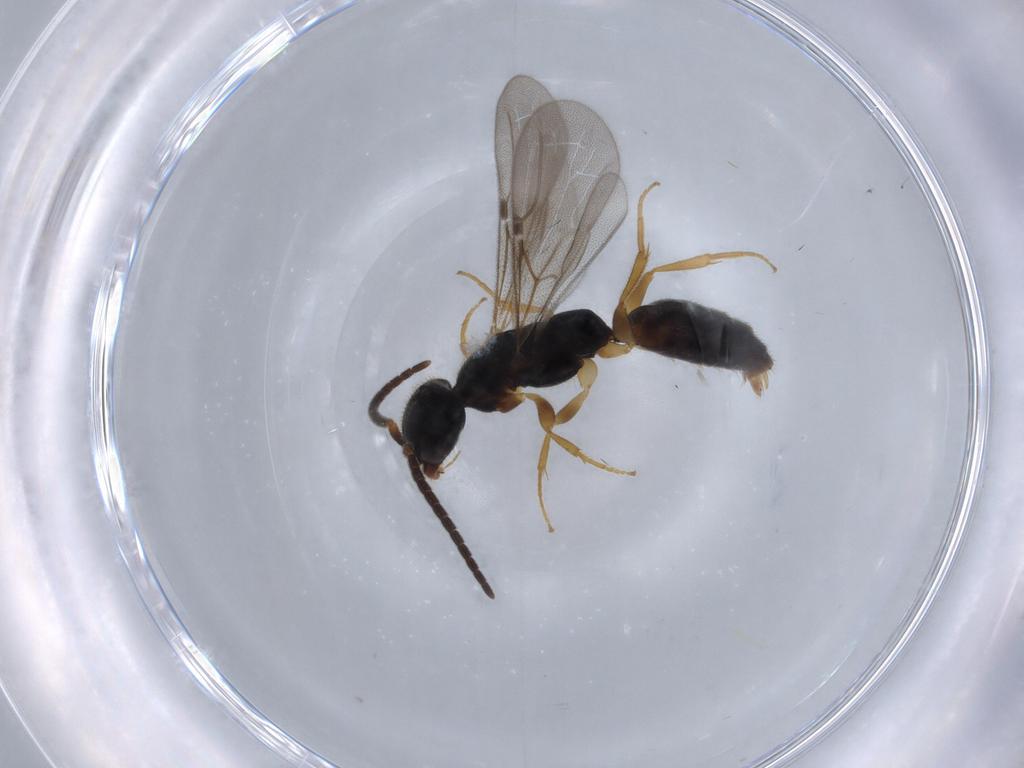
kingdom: Animalia
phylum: Arthropoda
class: Insecta
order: Hymenoptera
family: Bethylidae
